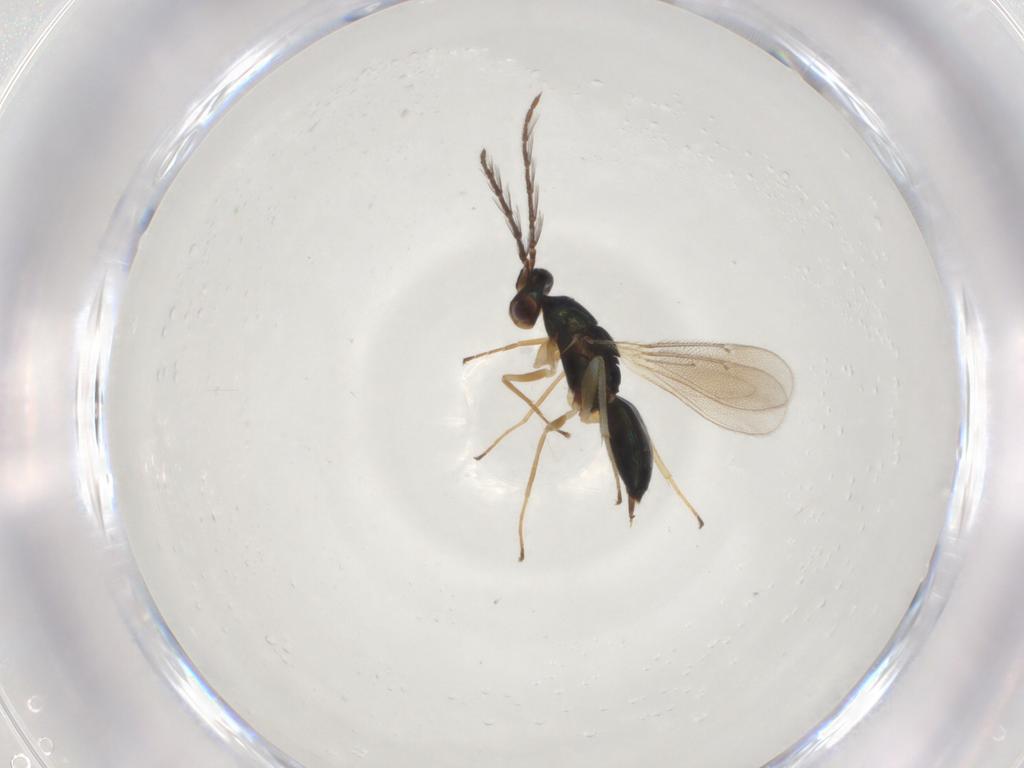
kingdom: Animalia
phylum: Arthropoda
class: Insecta
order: Hymenoptera
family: Eulophidae
